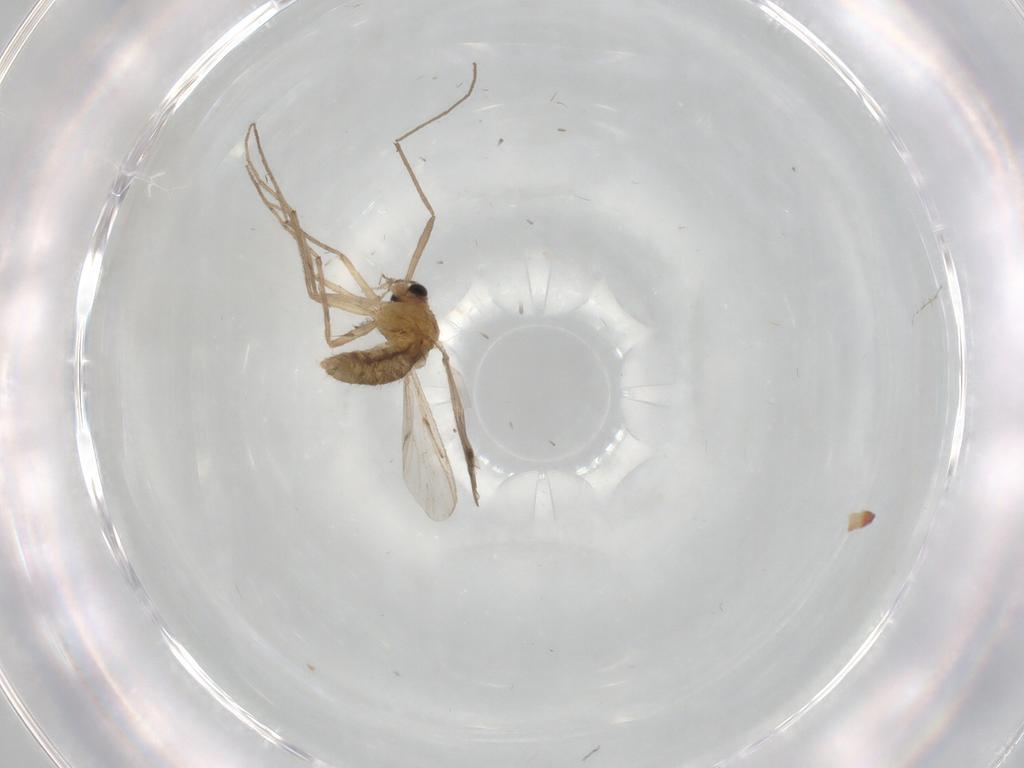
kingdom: Animalia
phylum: Arthropoda
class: Insecta
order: Diptera
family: Chironomidae
